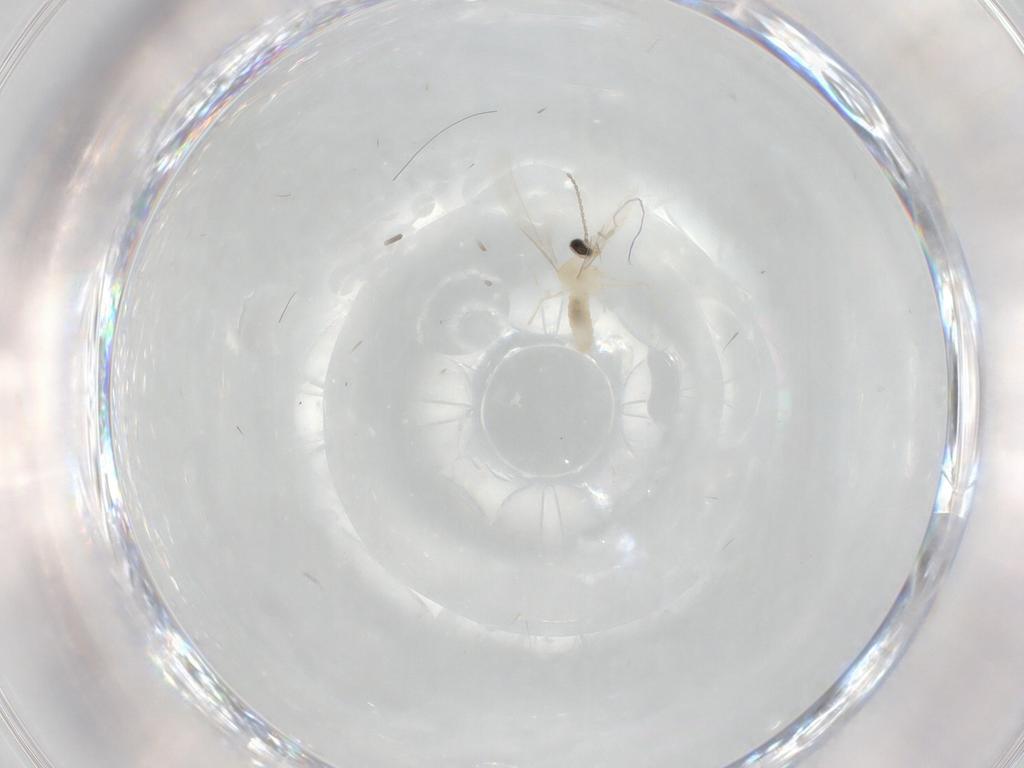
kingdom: Animalia
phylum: Arthropoda
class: Insecta
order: Diptera
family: Cecidomyiidae
